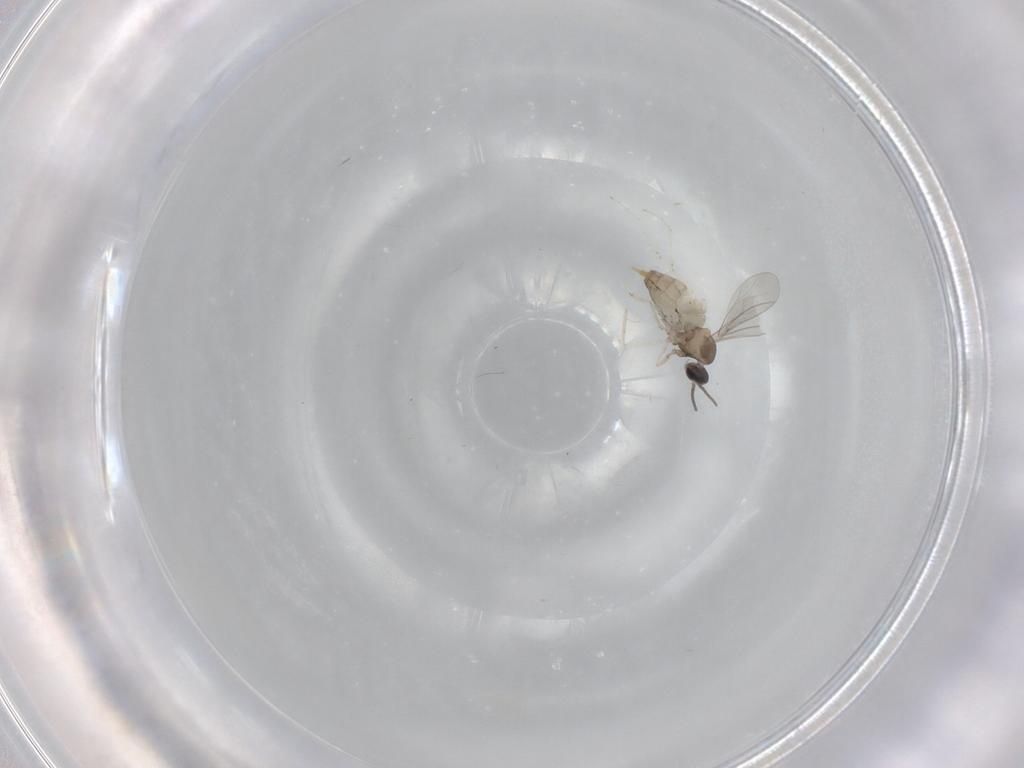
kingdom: Animalia
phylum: Arthropoda
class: Insecta
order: Diptera
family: Cecidomyiidae
